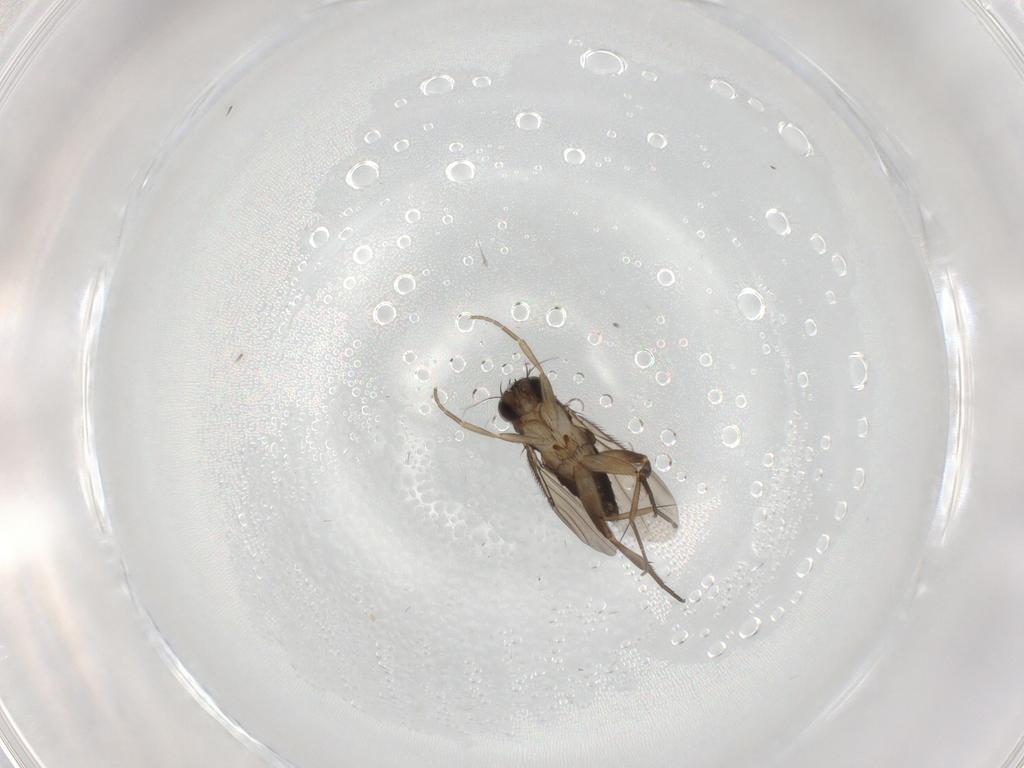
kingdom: Animalia
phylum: Arthropoda
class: Insecta
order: Diptera
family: Phoridae
